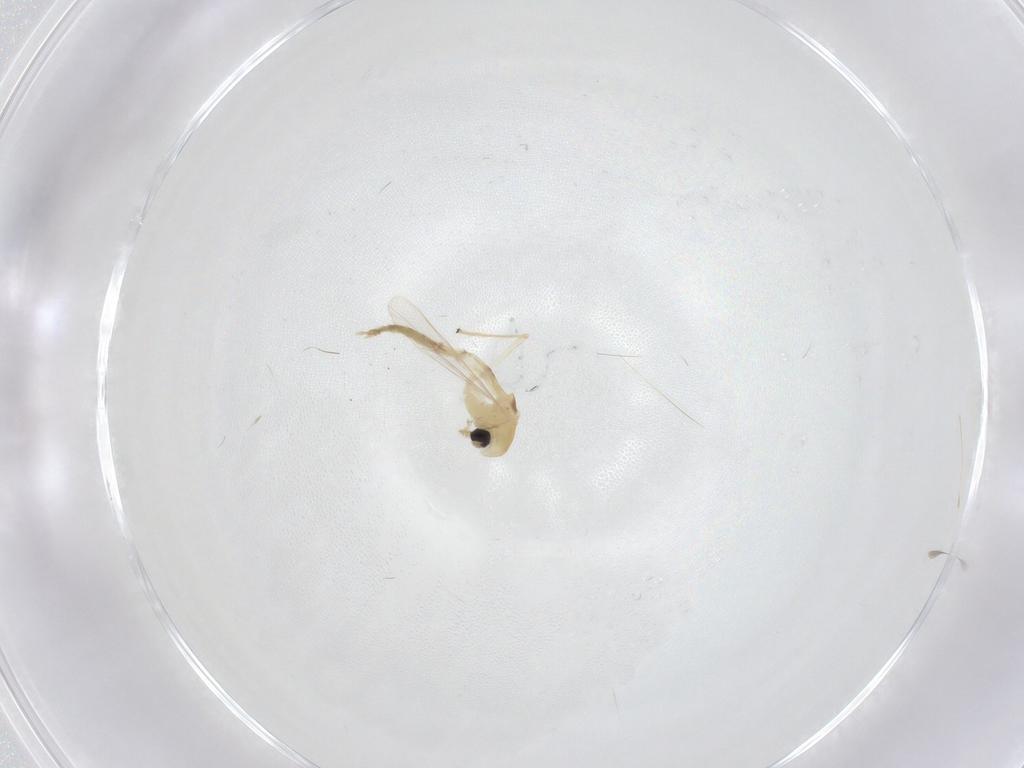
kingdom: Animalia
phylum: Arthropoda
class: Insecta
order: Diptera
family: Chironomidae
